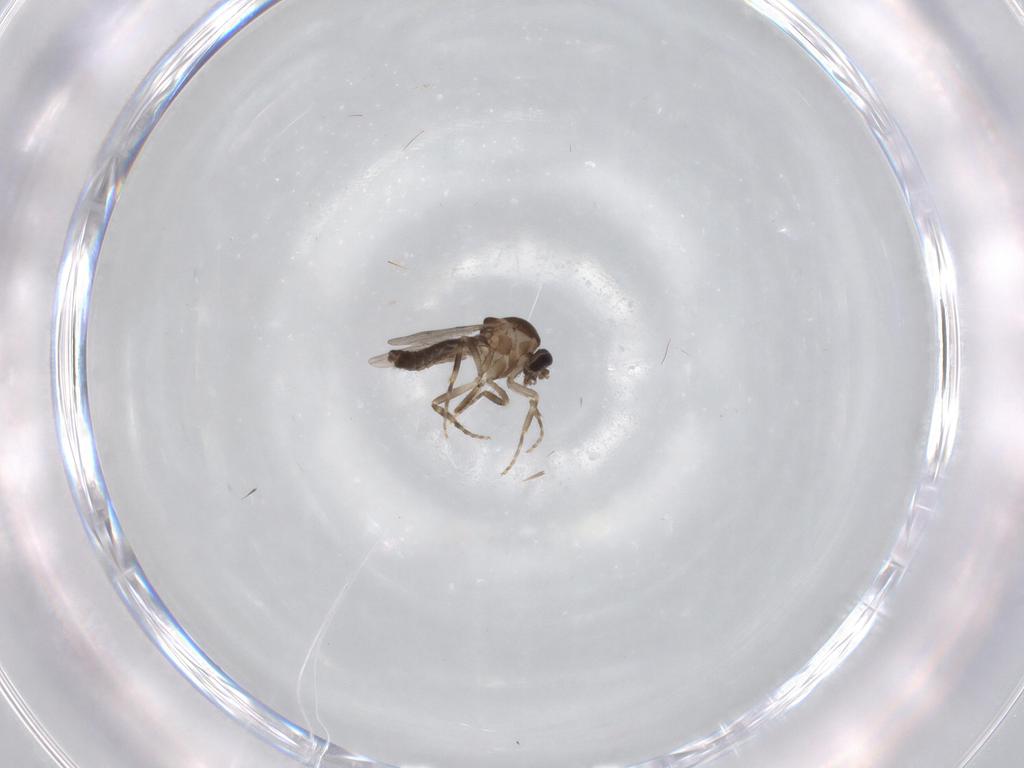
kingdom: Animalia
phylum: Arthropoda
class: Insecta
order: Diptera
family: Ceratopogonidae
